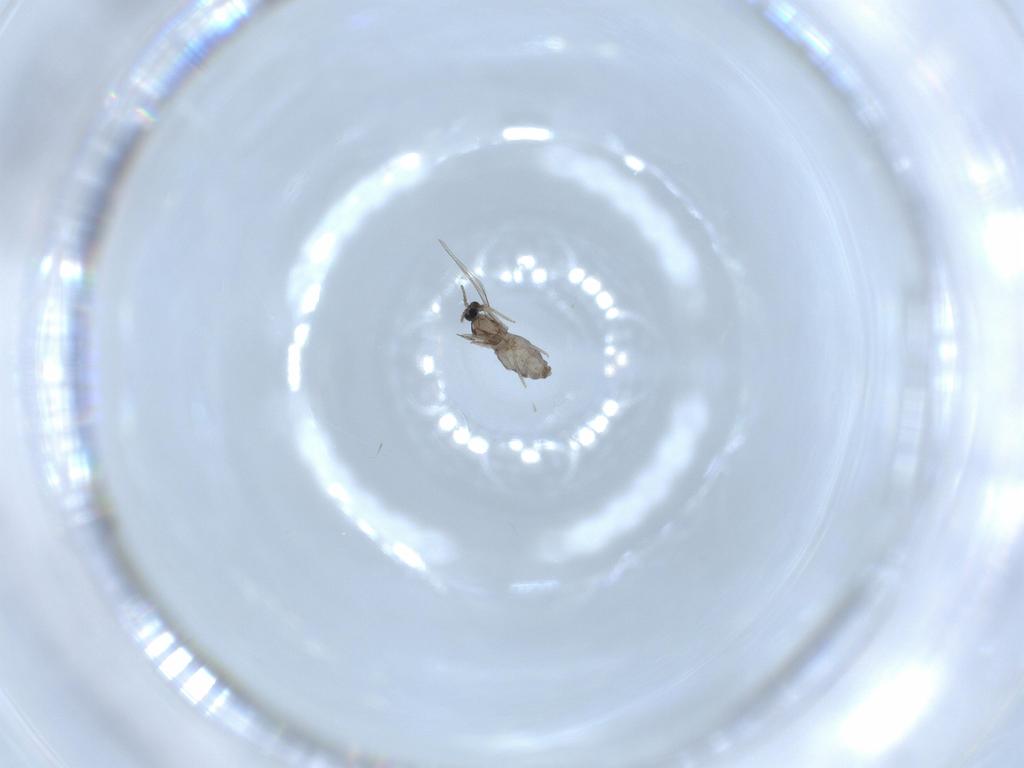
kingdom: Animalia
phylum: Arthropoda
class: Insecta
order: Diptera
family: Cecidomyiidae
